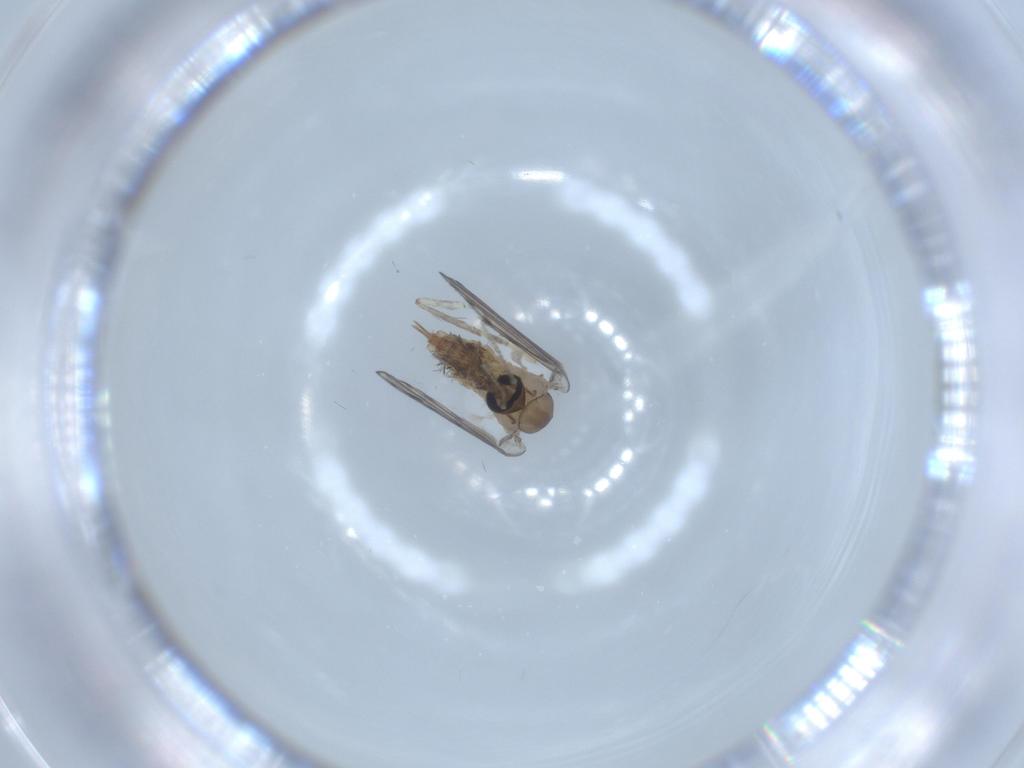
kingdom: Animalia
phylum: Arthropoda
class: Insecta
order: Diptera
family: Psychodidae
